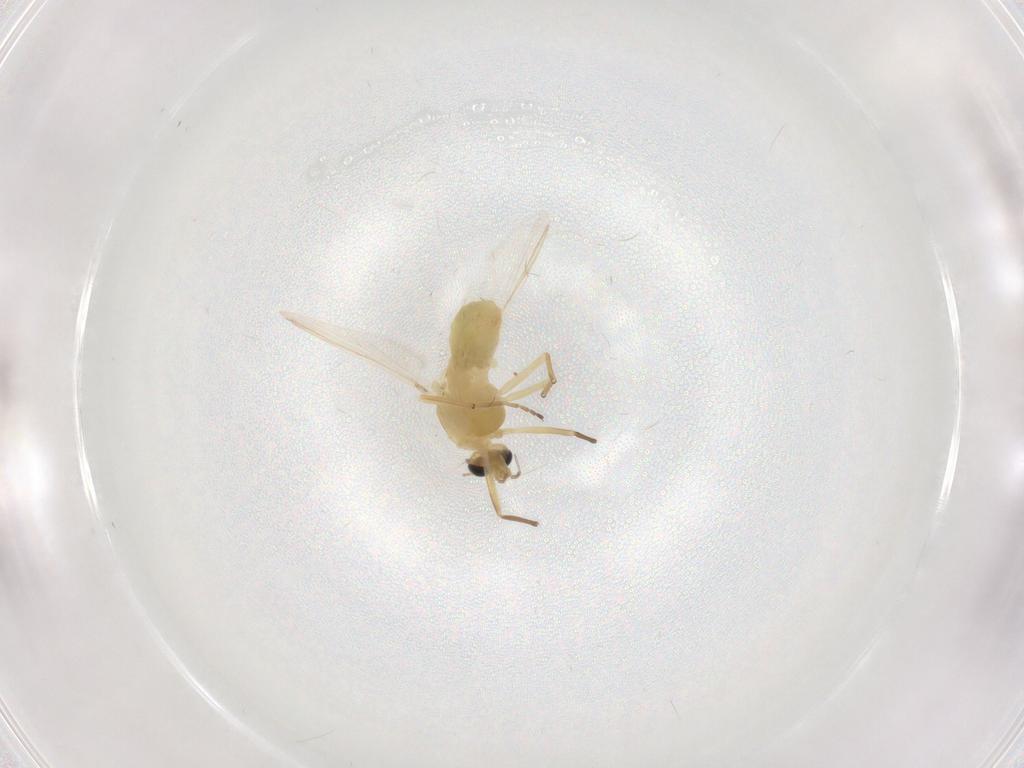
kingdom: Animalia
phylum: Arthropoda
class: Insecta
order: Diptera
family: Chironomidae
